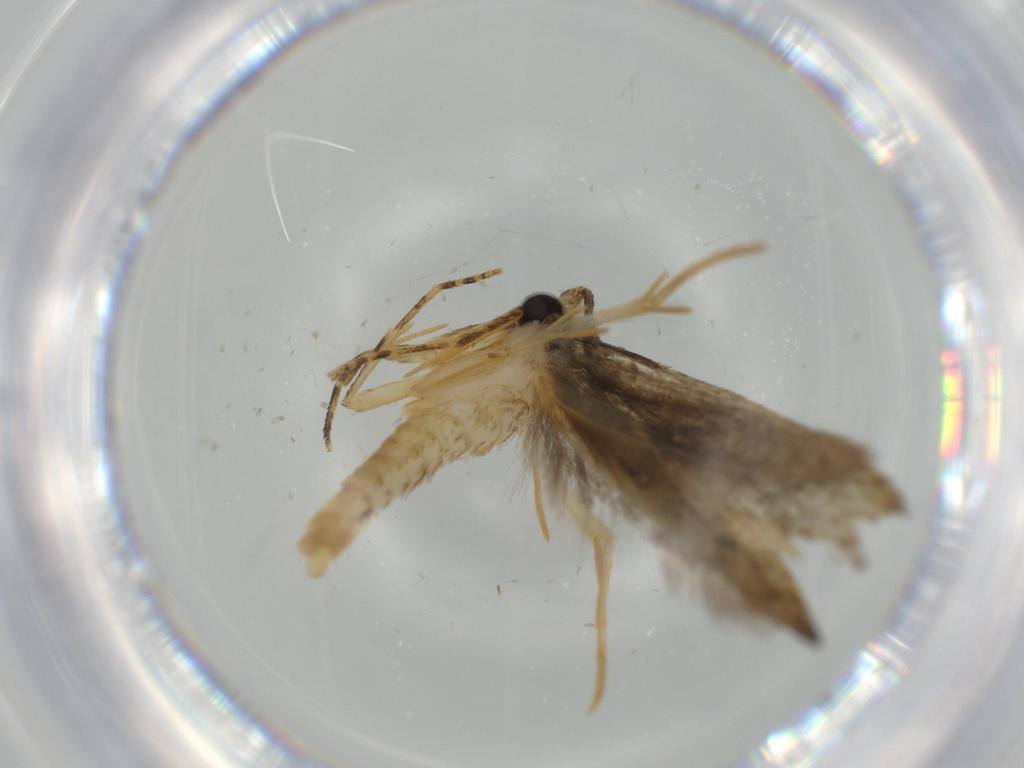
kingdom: Animalia
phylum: Arthropoda
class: Insecta
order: Lepidoptera
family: Tineidae
